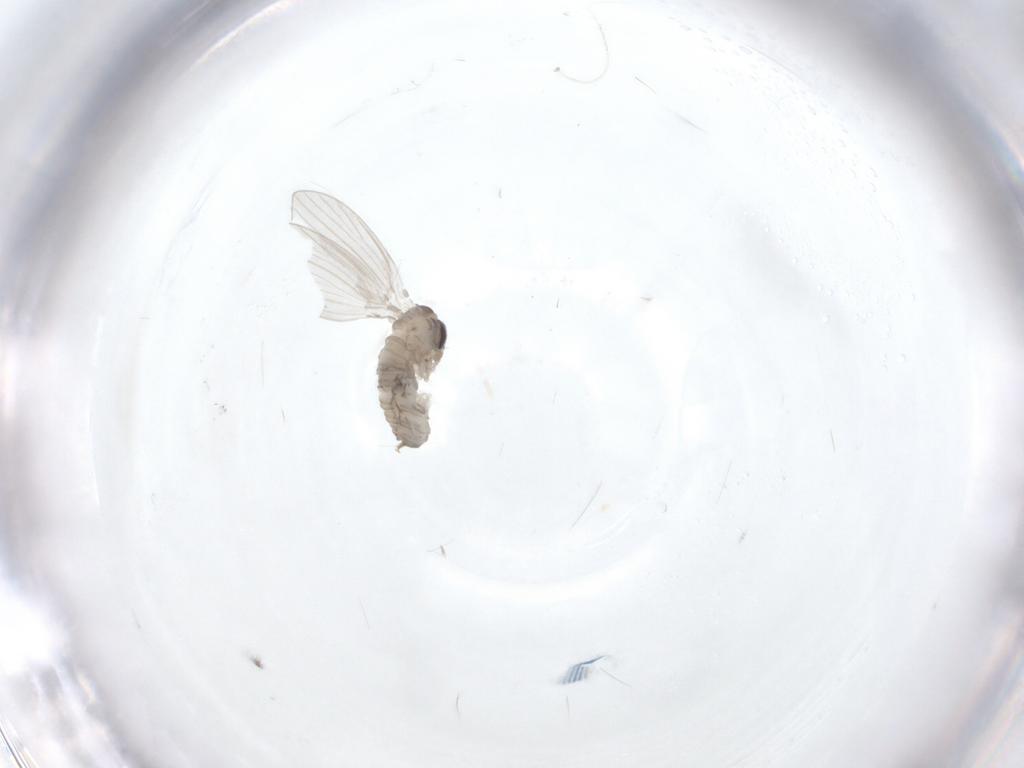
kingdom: Animalia
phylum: Arthropoda
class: Insecta
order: Diptera
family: Psychodidae
